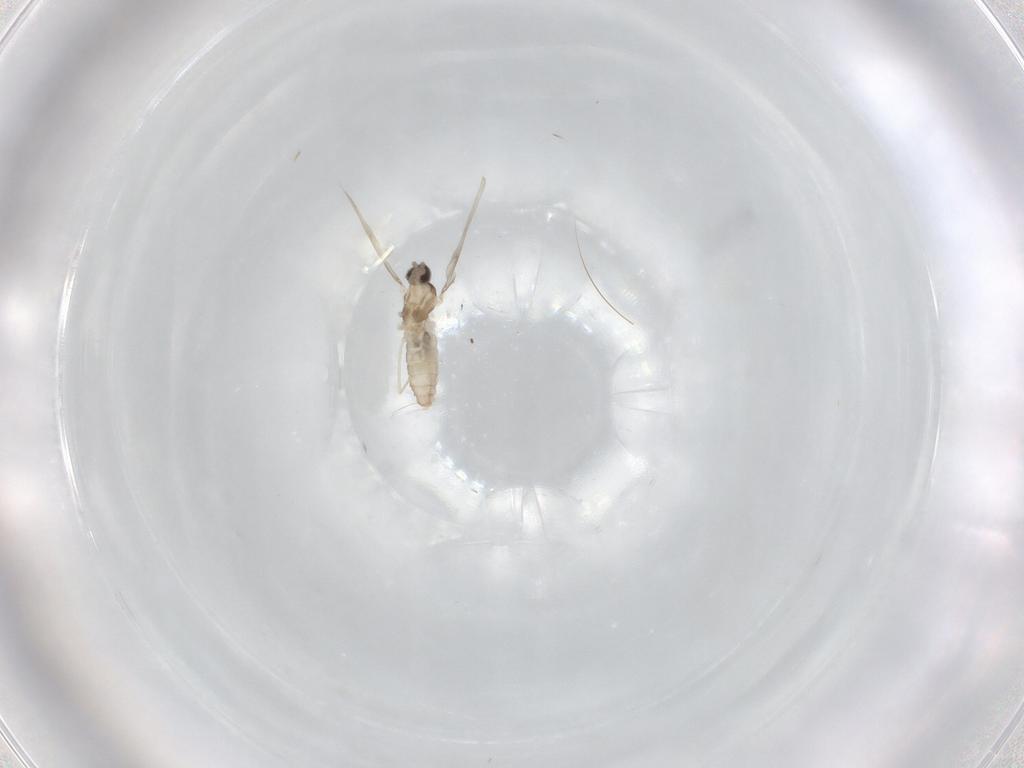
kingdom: Animalia
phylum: Arthropoda
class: Insecta
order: Diptera
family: Cecidomyiidae
